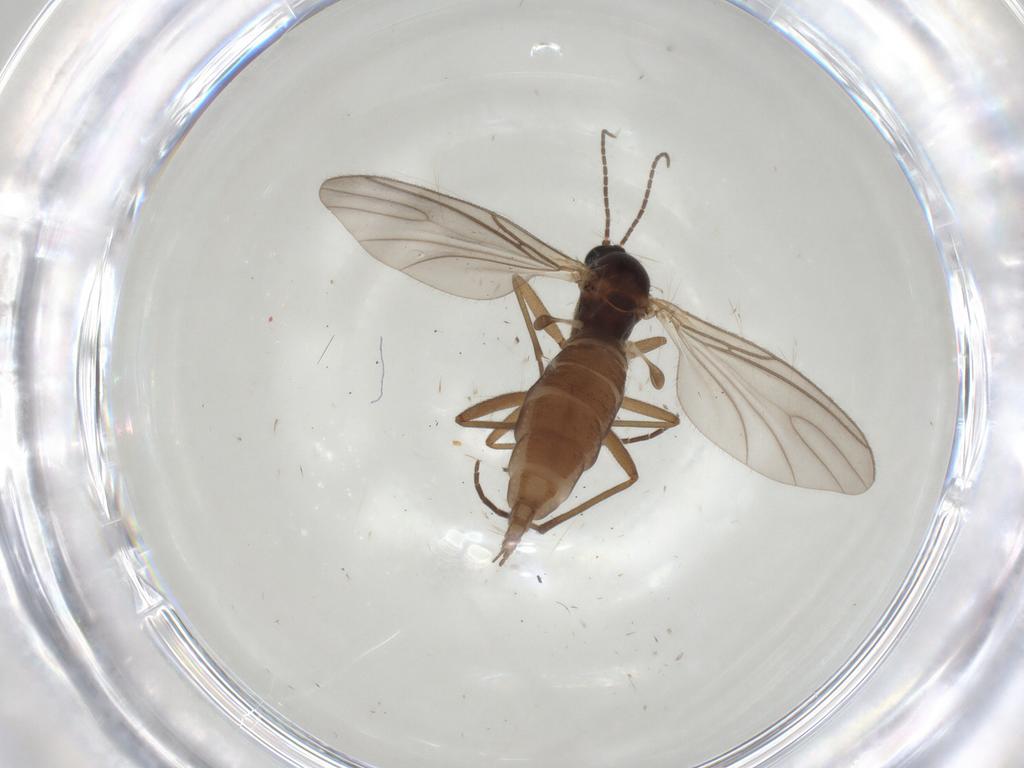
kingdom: Animalia
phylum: Arthropoda
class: Insecta
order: Diptera
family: Sciaridae
